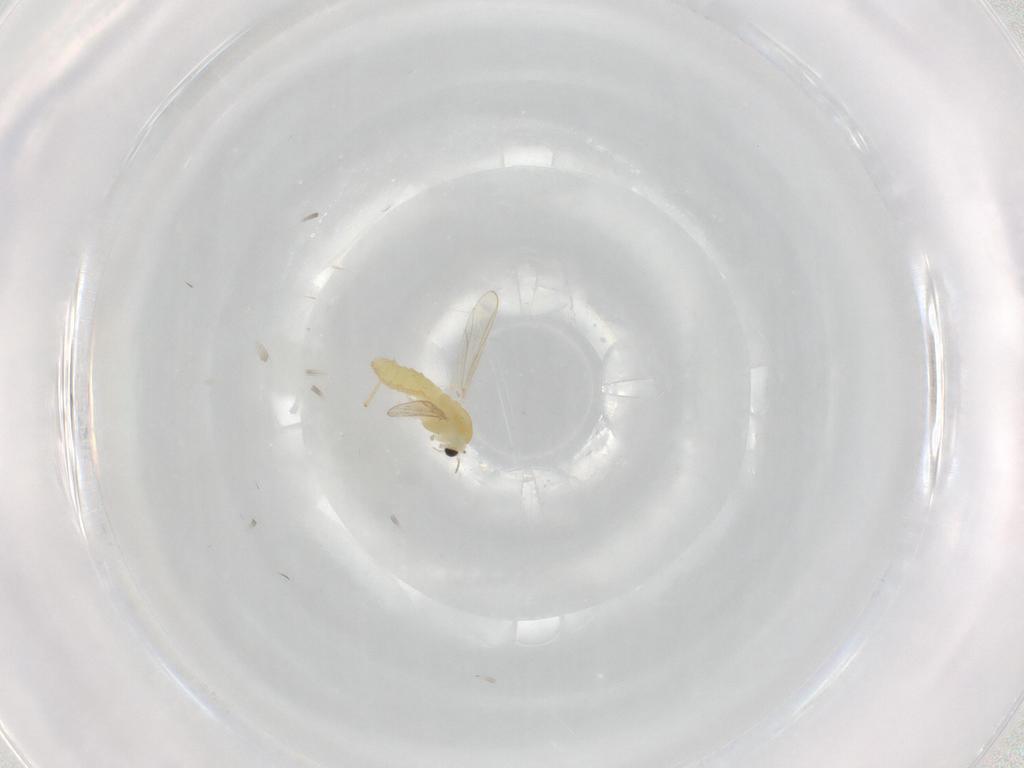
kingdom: Animalia
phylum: Arthropoda
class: Insecta
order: Diptera
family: Chironomidae
